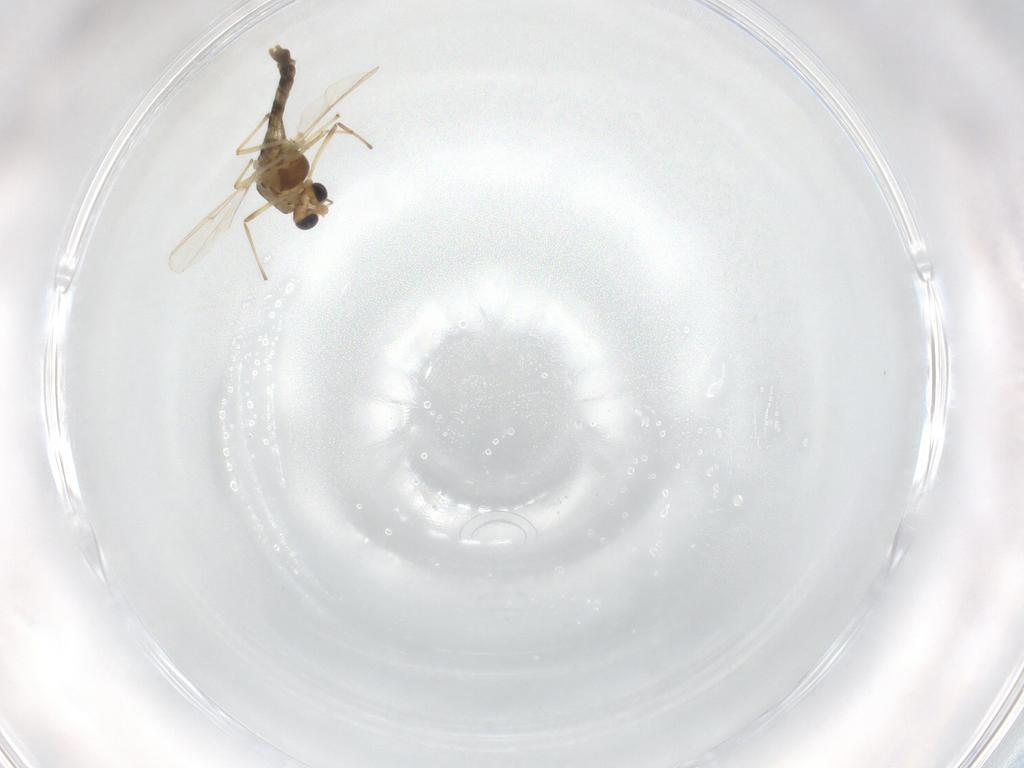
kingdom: Animalia
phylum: Arthropoda
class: Insecta
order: Diptera
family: Chironomidae
